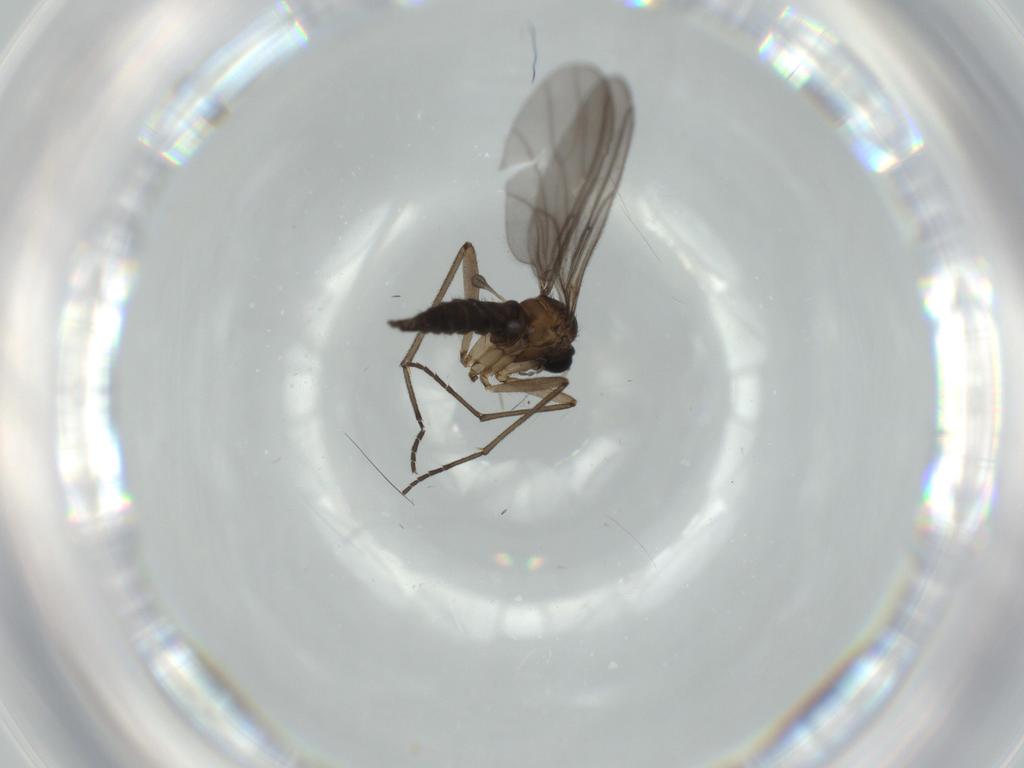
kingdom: Animalia
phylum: Arthropoda
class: Insecta
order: Diptera
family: Sciaridae
